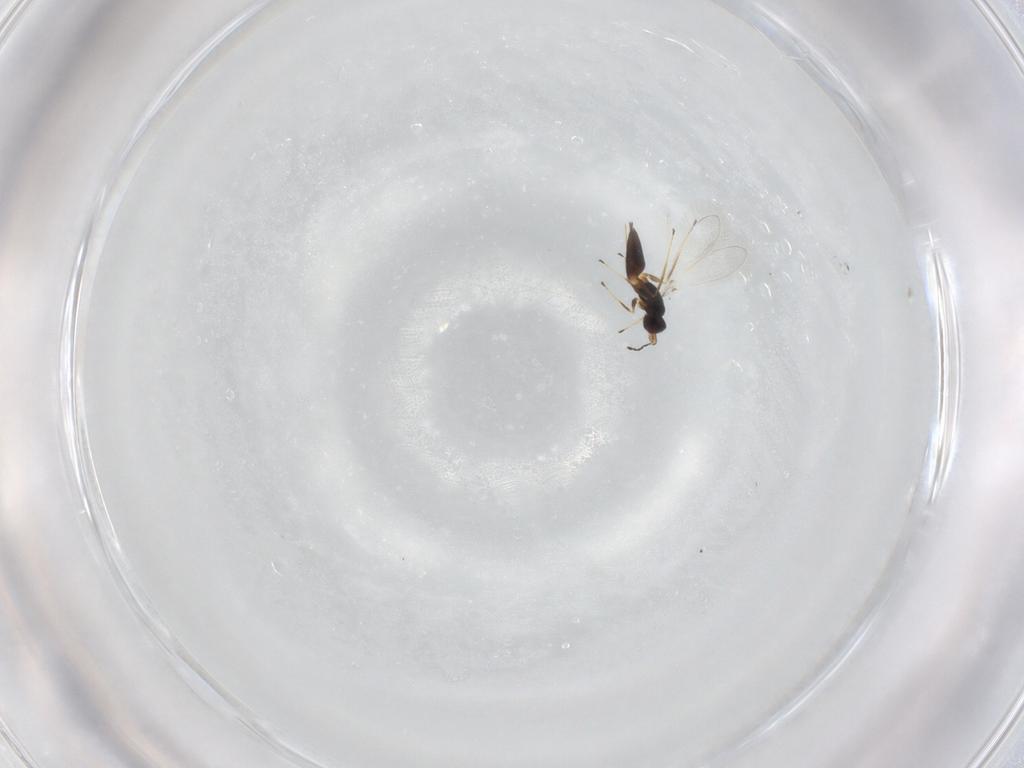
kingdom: Animalia
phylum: Arthropoda
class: Insecta
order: Hymenoptera
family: Mymaridae
